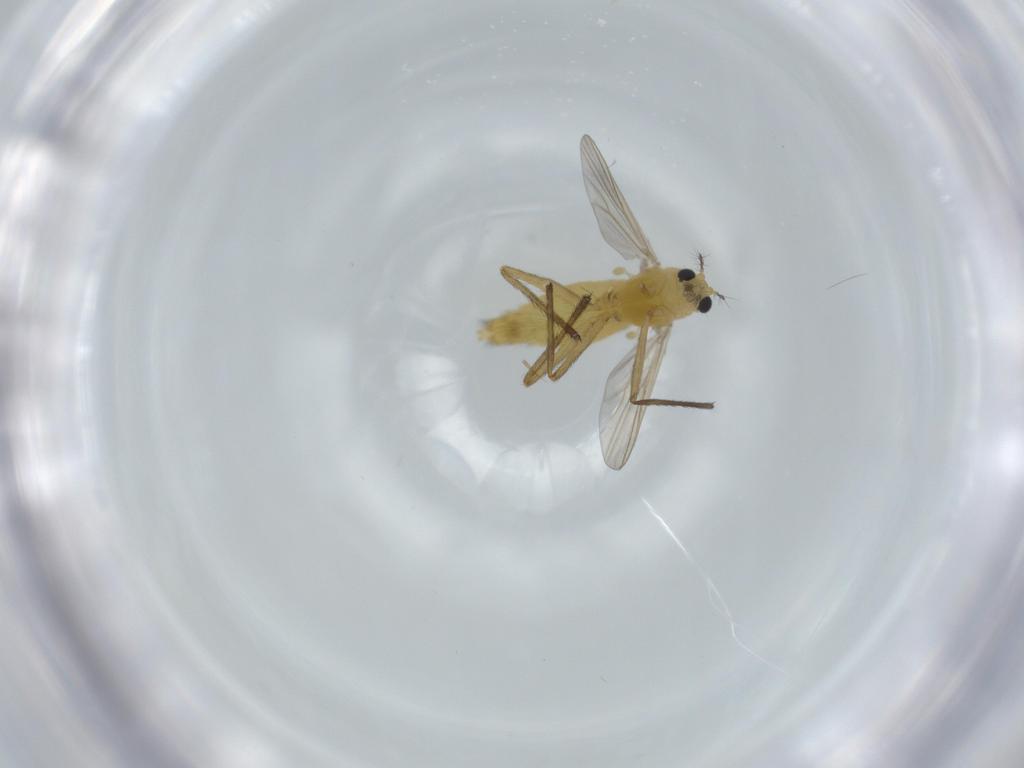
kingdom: Animalia
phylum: Arthropoda
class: Insecta
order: Diptera
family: Chironomidae
